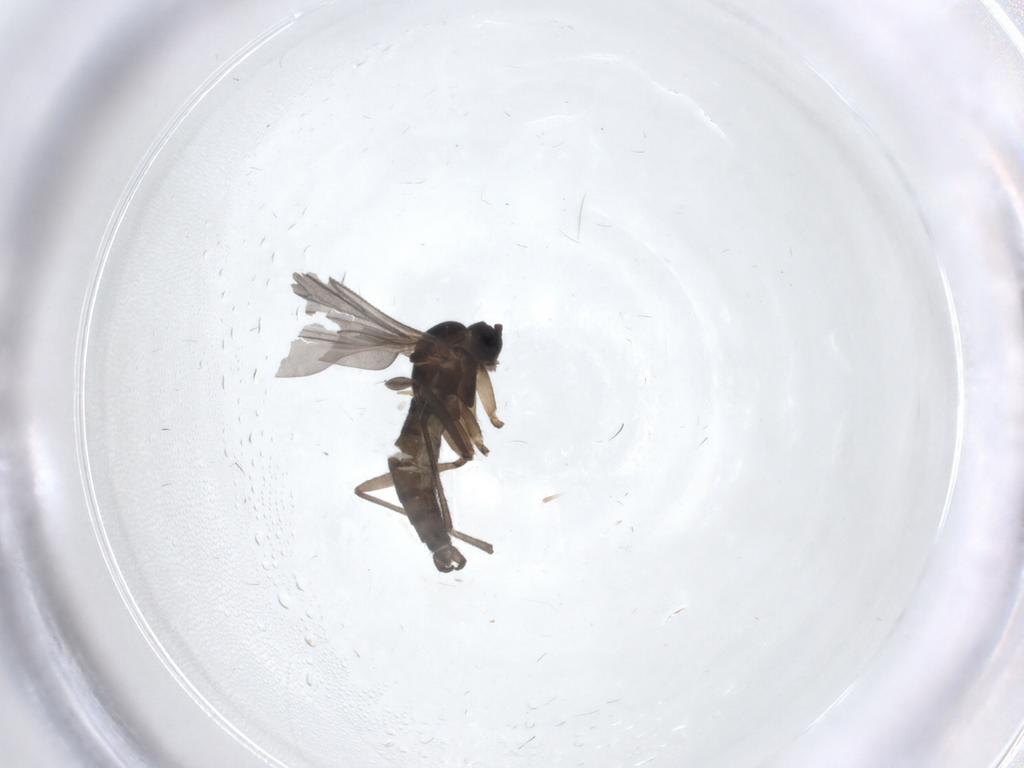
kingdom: Animalia
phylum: Arthropoda
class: Insecta
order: Diptera
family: Sciaridae
